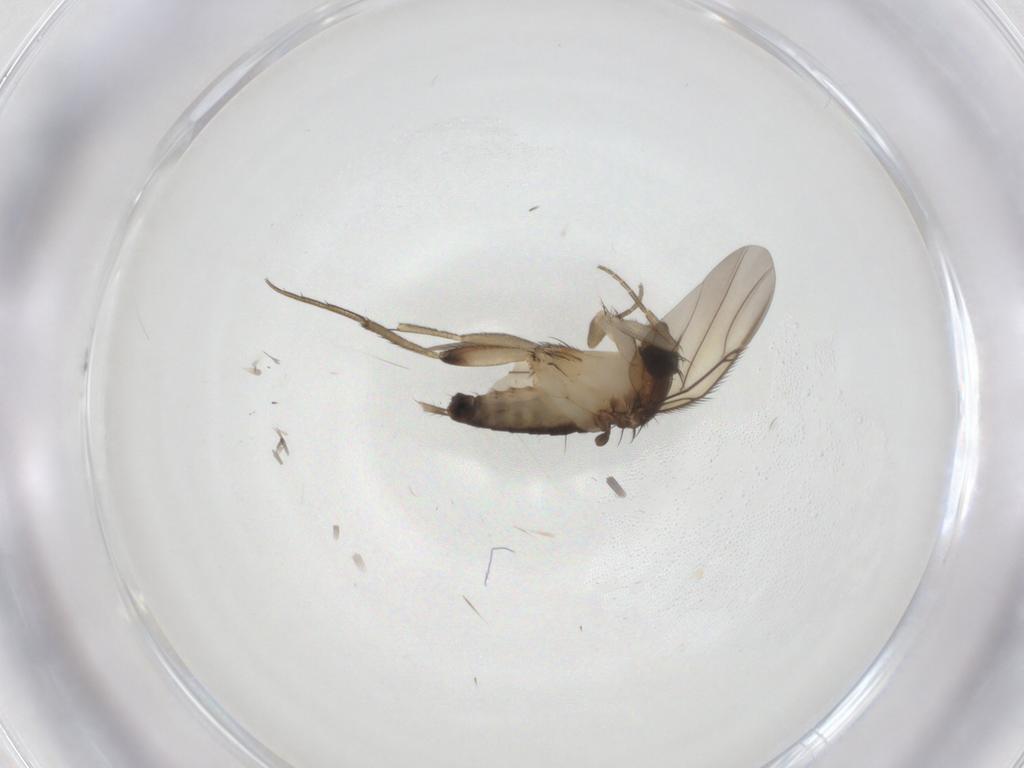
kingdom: Animalia
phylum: Arthropoda
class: Insecta
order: Diptera
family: Phoridae
